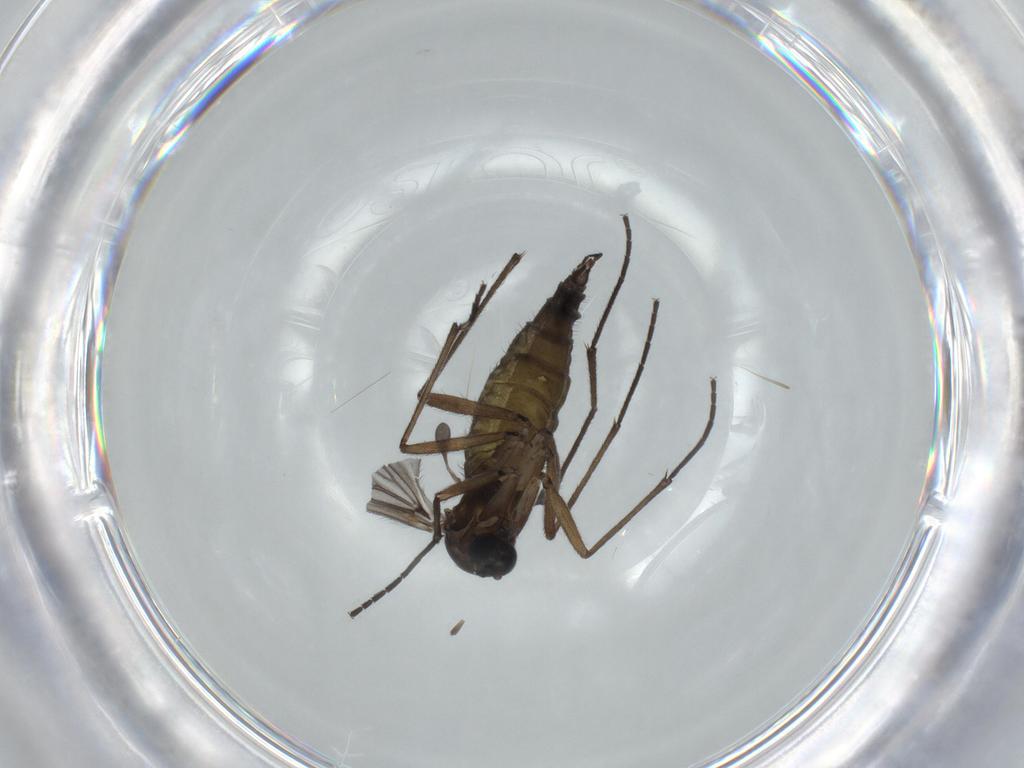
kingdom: Animalia
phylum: Arthropoda
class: Insecta
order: Diptera
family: Sciaridae
